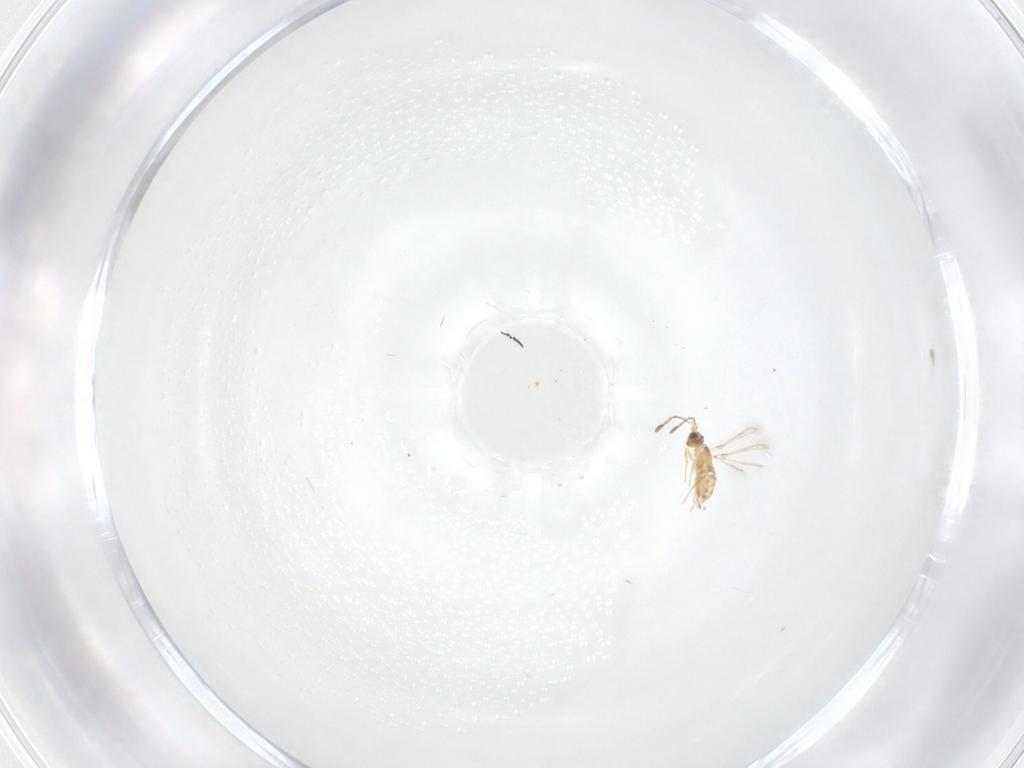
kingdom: Animalia
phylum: Arthropoda
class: Insecta
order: Hymenoptera
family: Mymaridae
